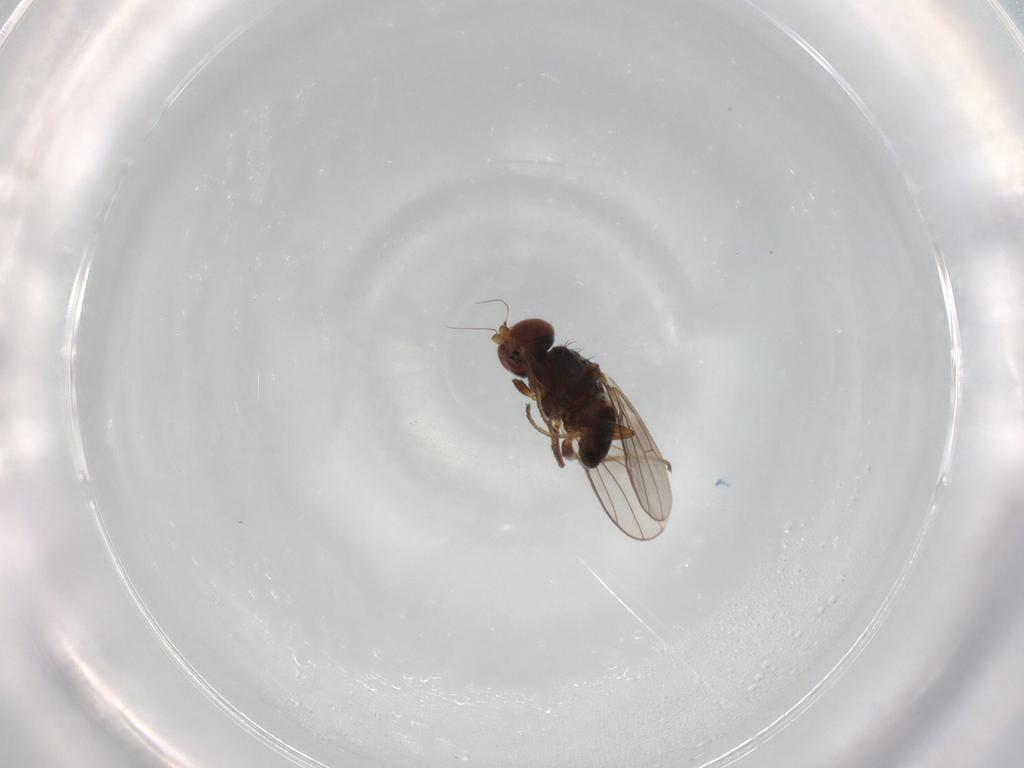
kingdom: Animalia
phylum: Arthropoda
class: Insecta
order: Diptera
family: Chloropidae
